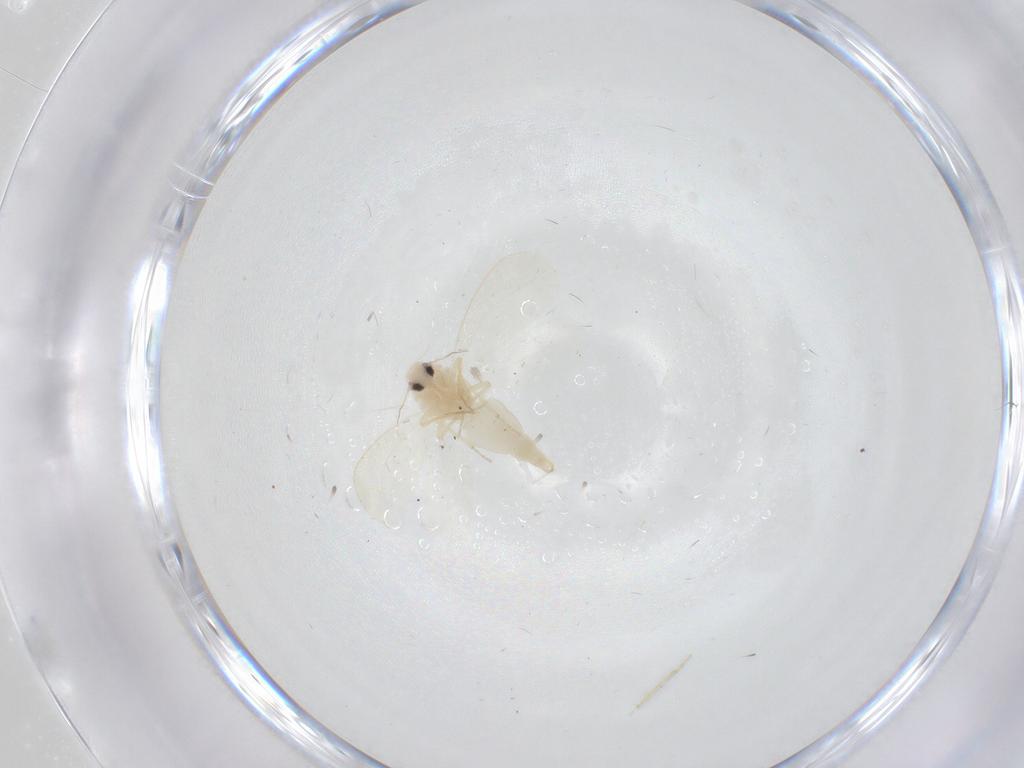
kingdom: Animalia
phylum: Arthropoda
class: Insecta
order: Hemiptera
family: Aleyrodidae
